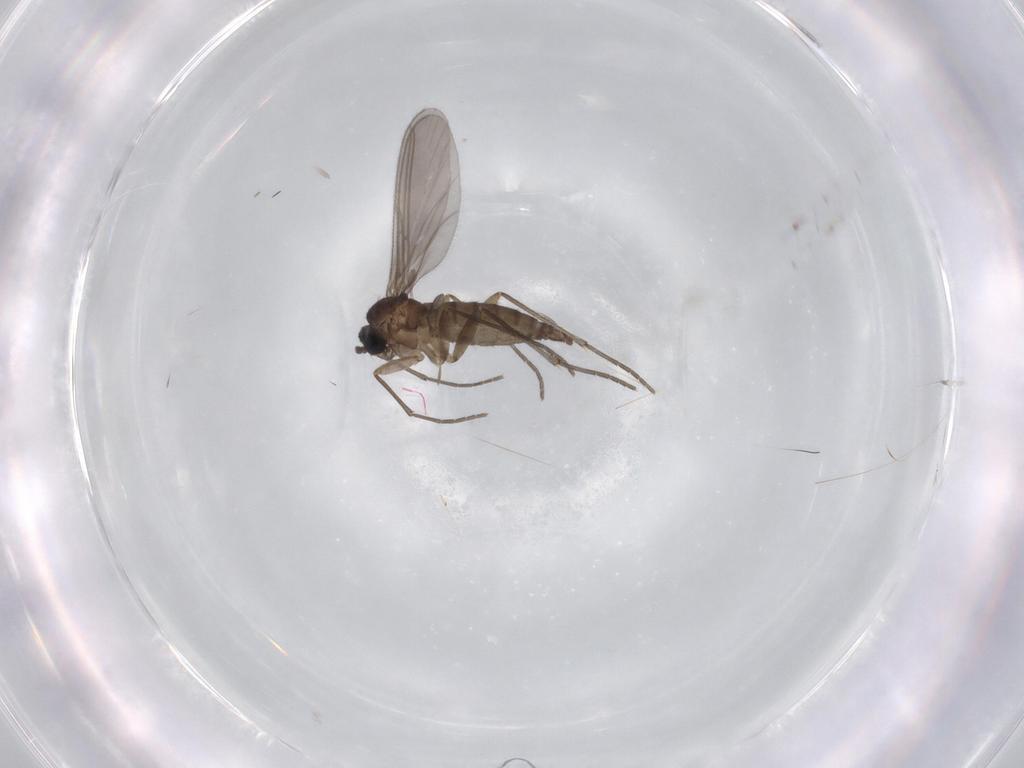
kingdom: Animalia
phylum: Arthropoda
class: Insecta
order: Diptera
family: Sciaridae
